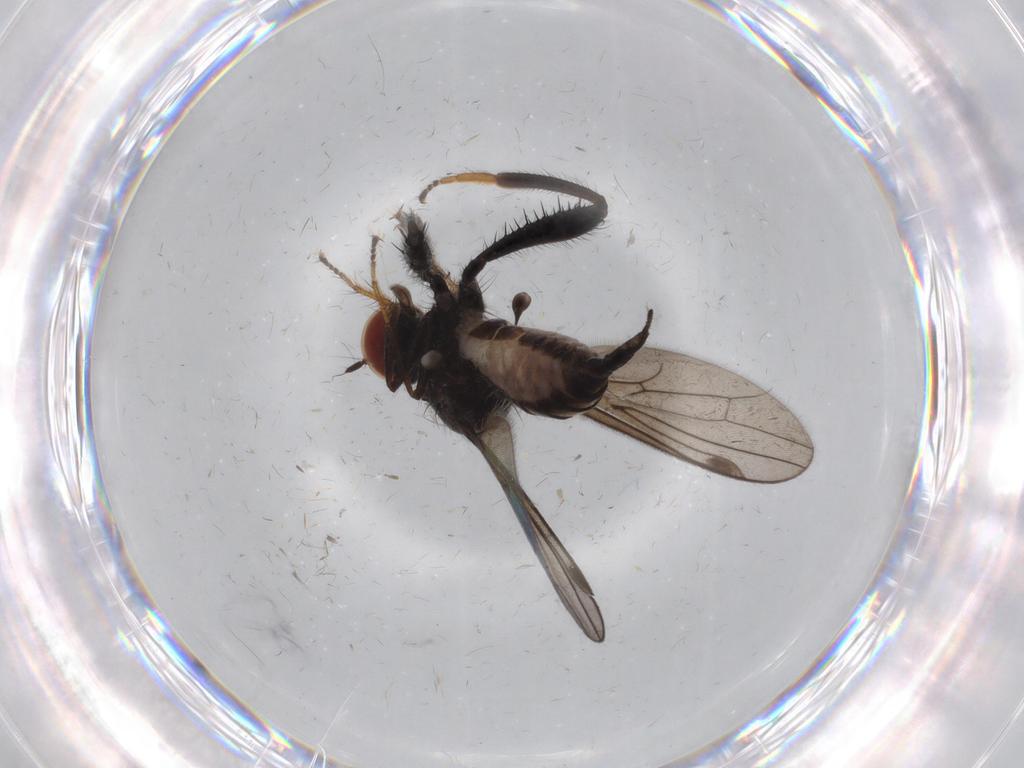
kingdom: Animalia
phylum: Arthropoda
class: Insecta
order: Diptera
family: Hybotidae
